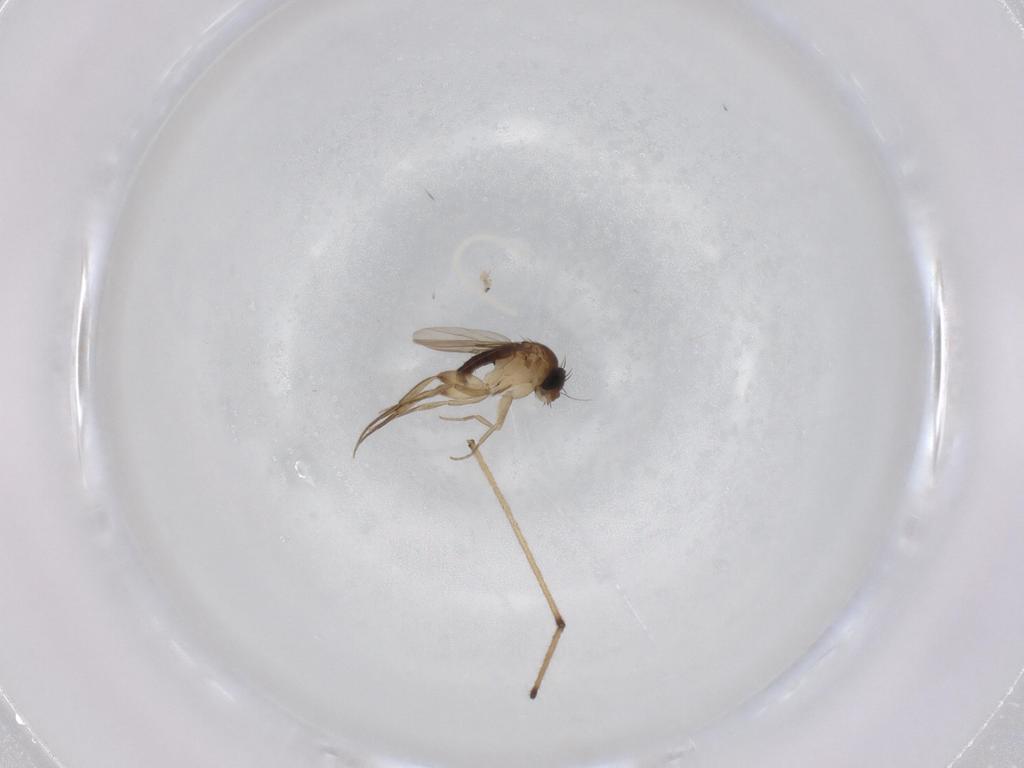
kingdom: Animalia
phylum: Arthropoda
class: Insecta
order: Diptera
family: Phoridae
